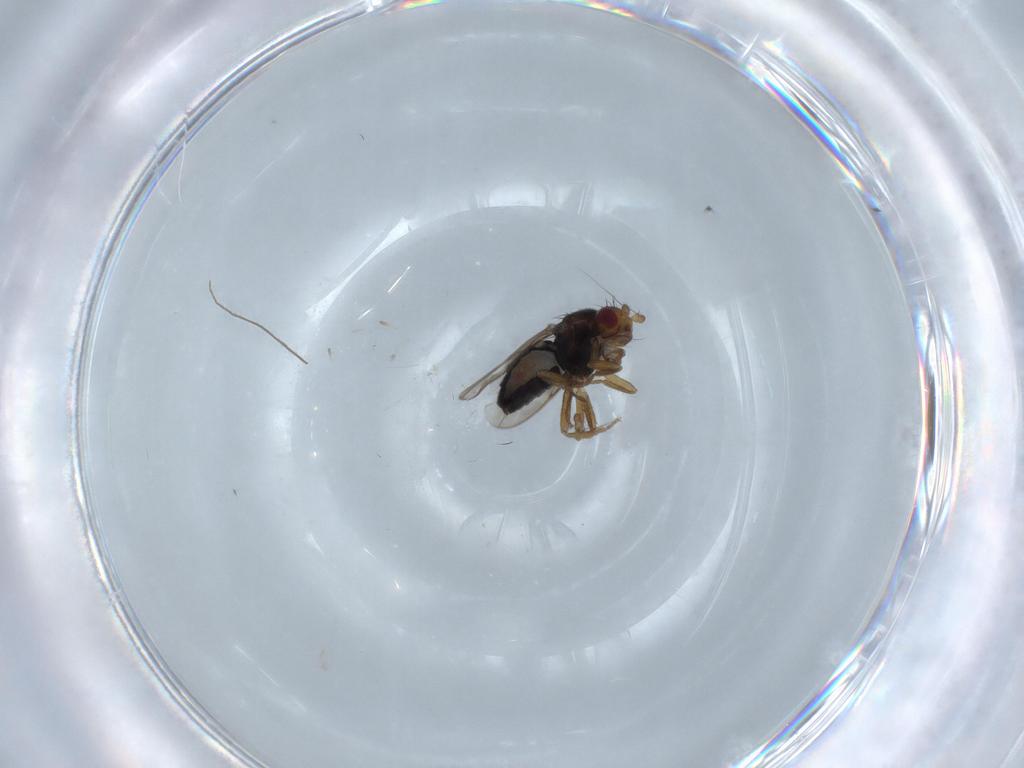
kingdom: Animalia
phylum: Arthropoda
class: Insecta
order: Diptera
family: Sphaeroceridae
